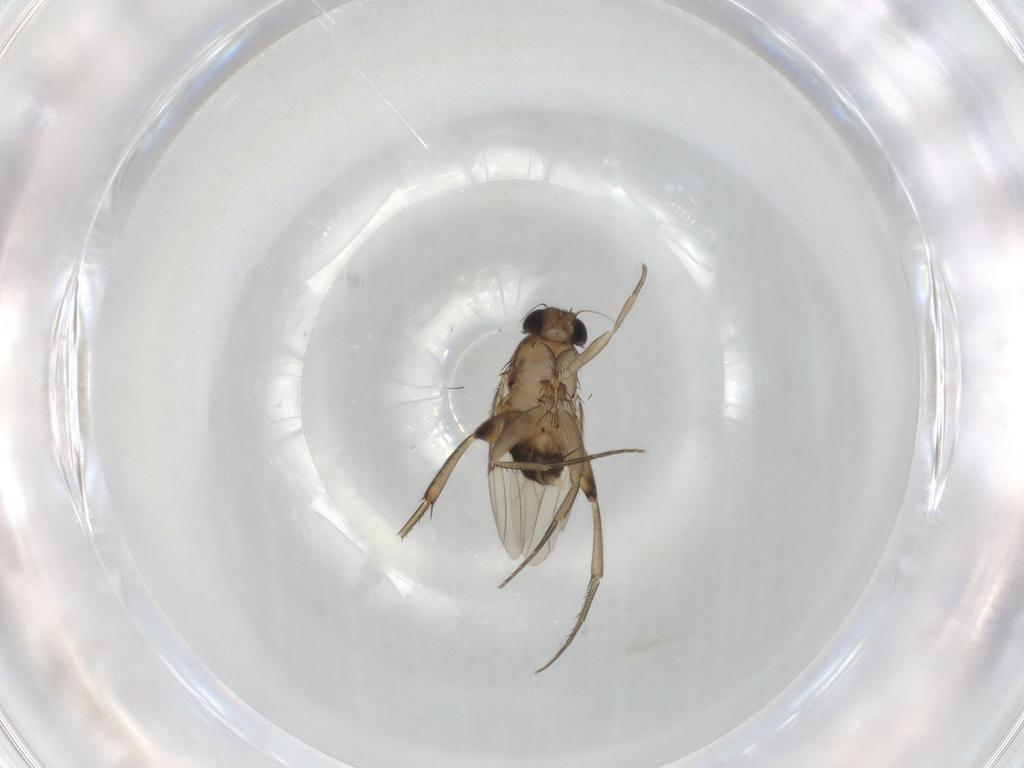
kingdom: Animalia
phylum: Arthropoda
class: Insecta
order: Diptera
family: Phoridae
